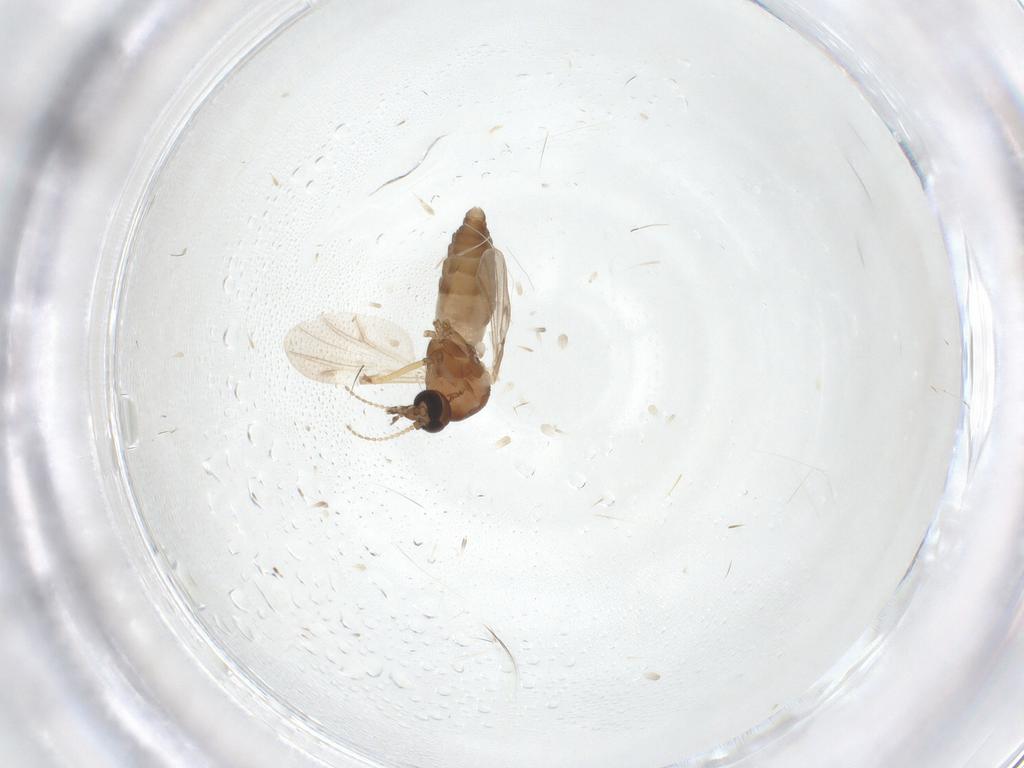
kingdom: Animalia
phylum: Arthropoda
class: Insecta
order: Diptera
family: Ceratopogonidae
